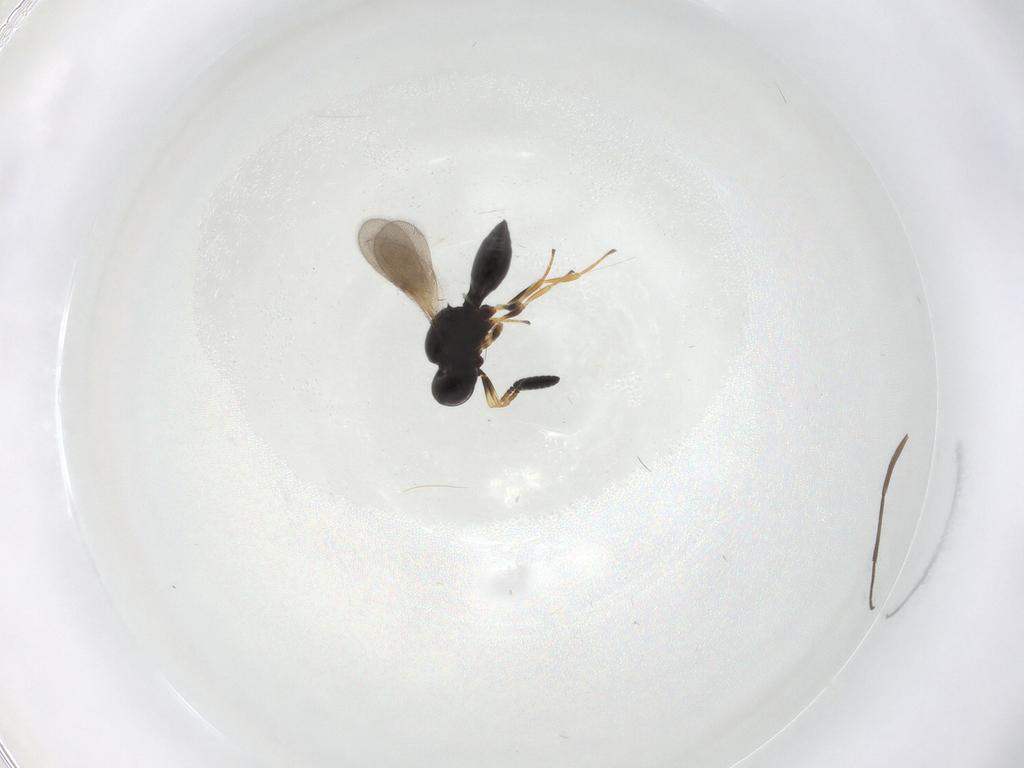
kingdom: Animalia
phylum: Arthropoda
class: Insecta
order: Hymenoptera
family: Scelionidae
